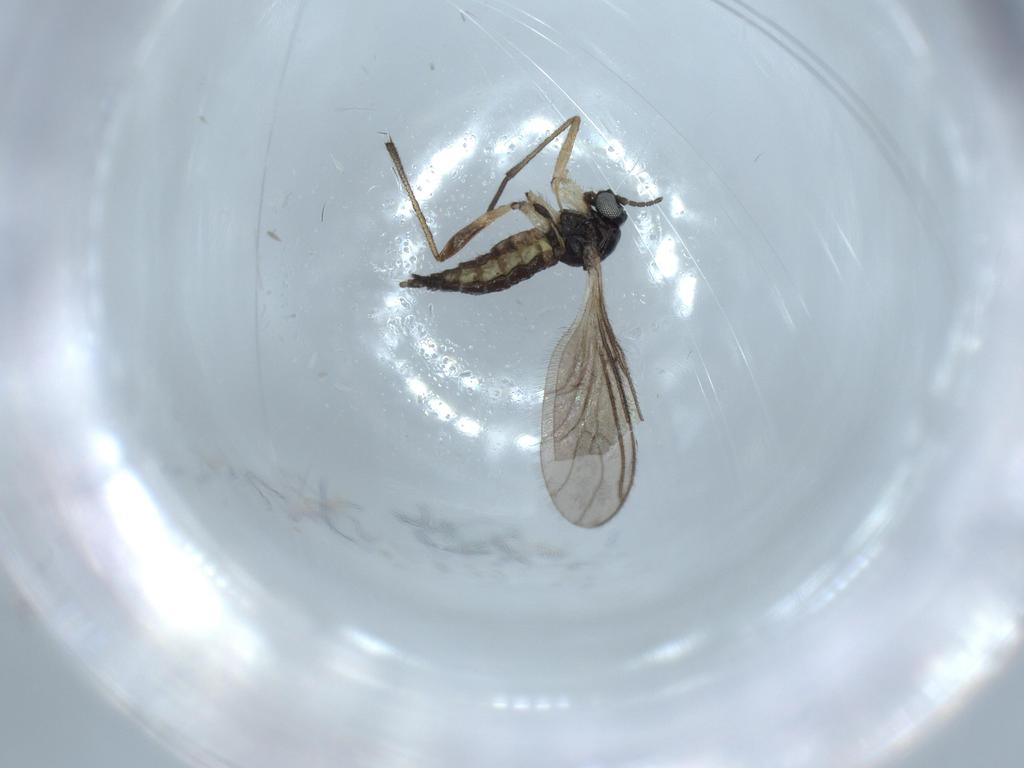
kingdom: Animalia
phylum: Arthropoda
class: Insecta
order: Diptera
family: Sciaridae
